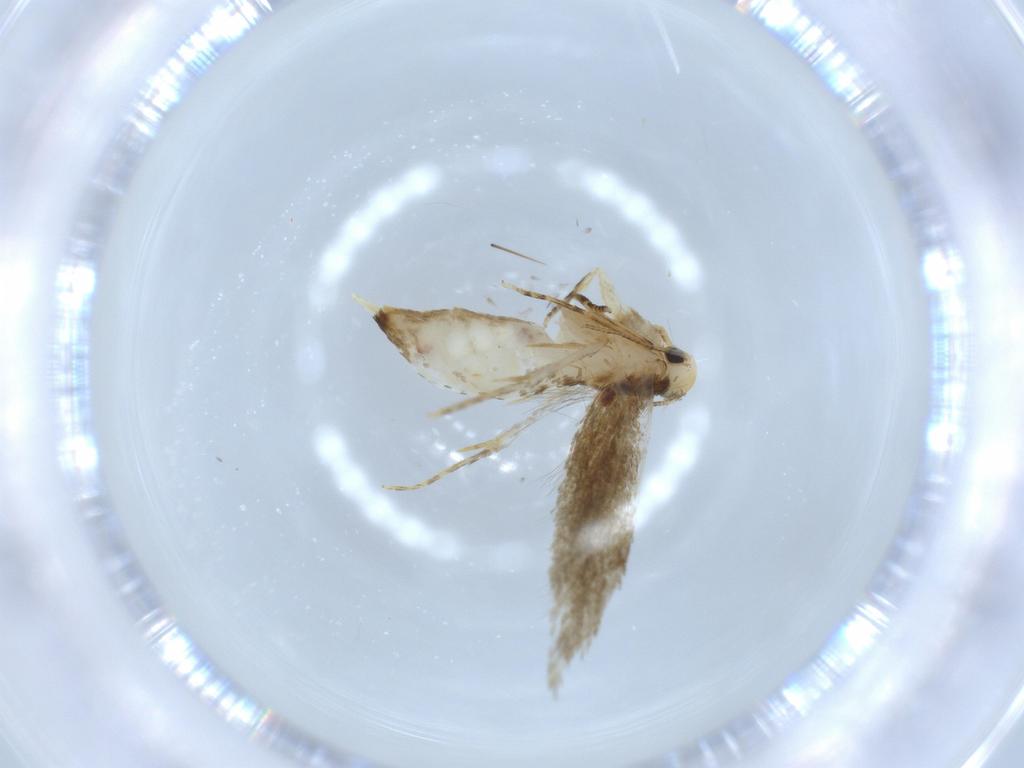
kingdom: Animalia
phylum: Arthropoda
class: Insecta
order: Lepidoptera
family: Tineidae
